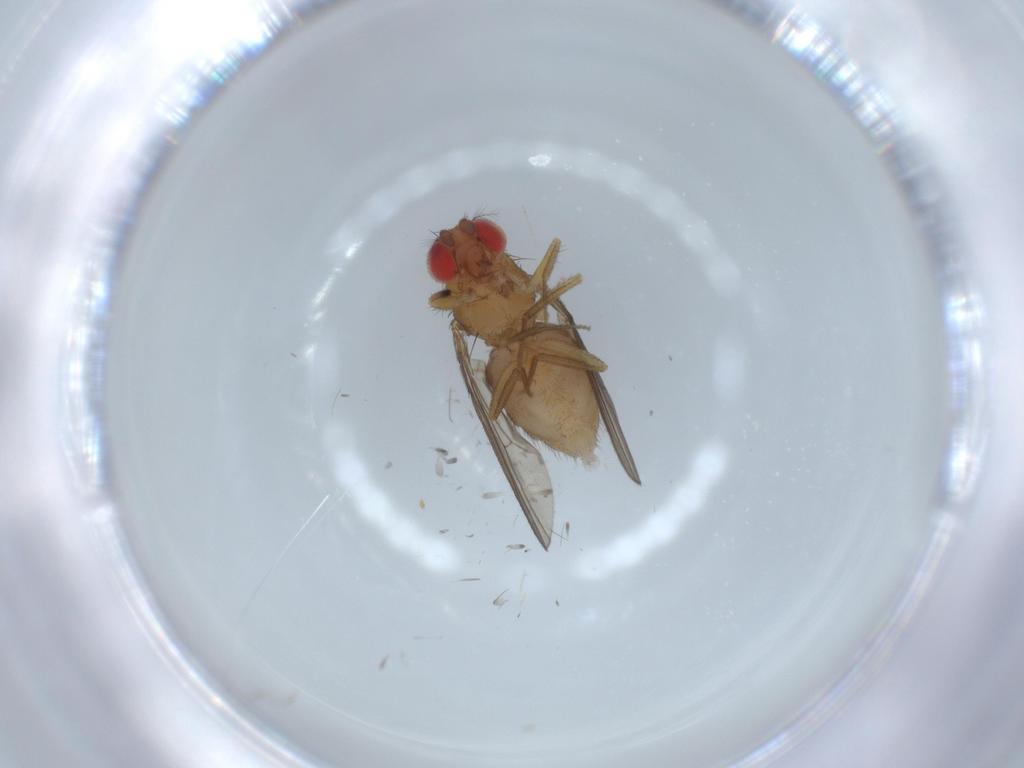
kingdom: Animalia
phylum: Arthropoda
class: Insecta
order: Diptera
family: Drosophilidae
